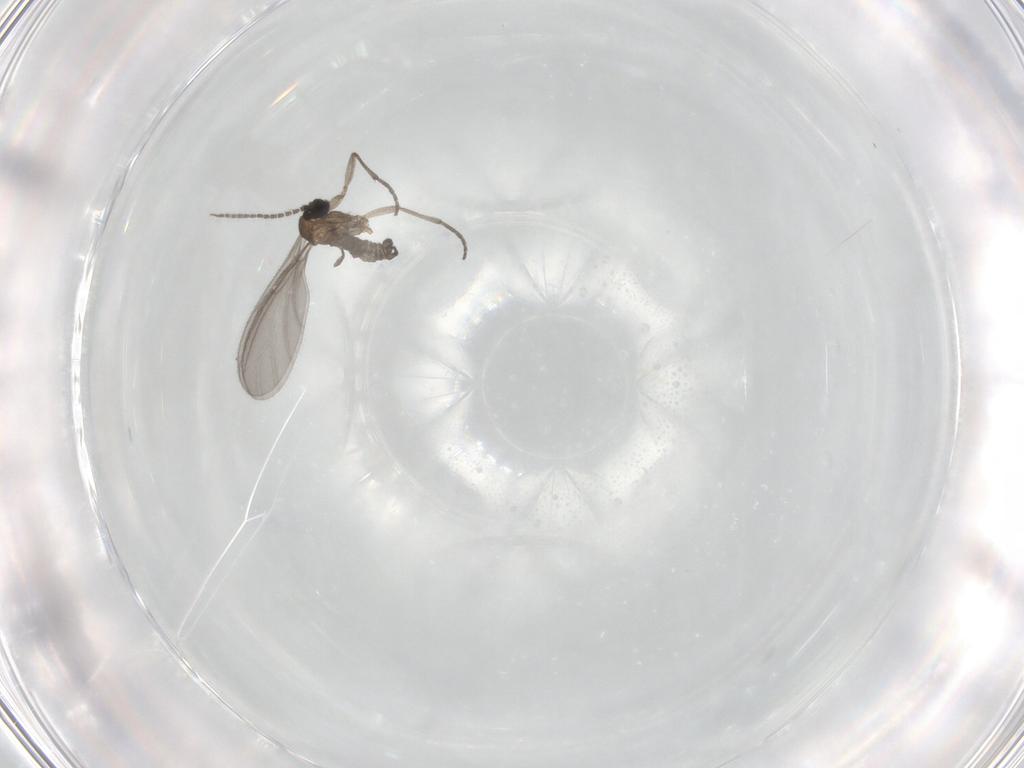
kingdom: Animalia
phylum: Arthropoda
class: Insecta
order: Diptera
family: Sciaridae
